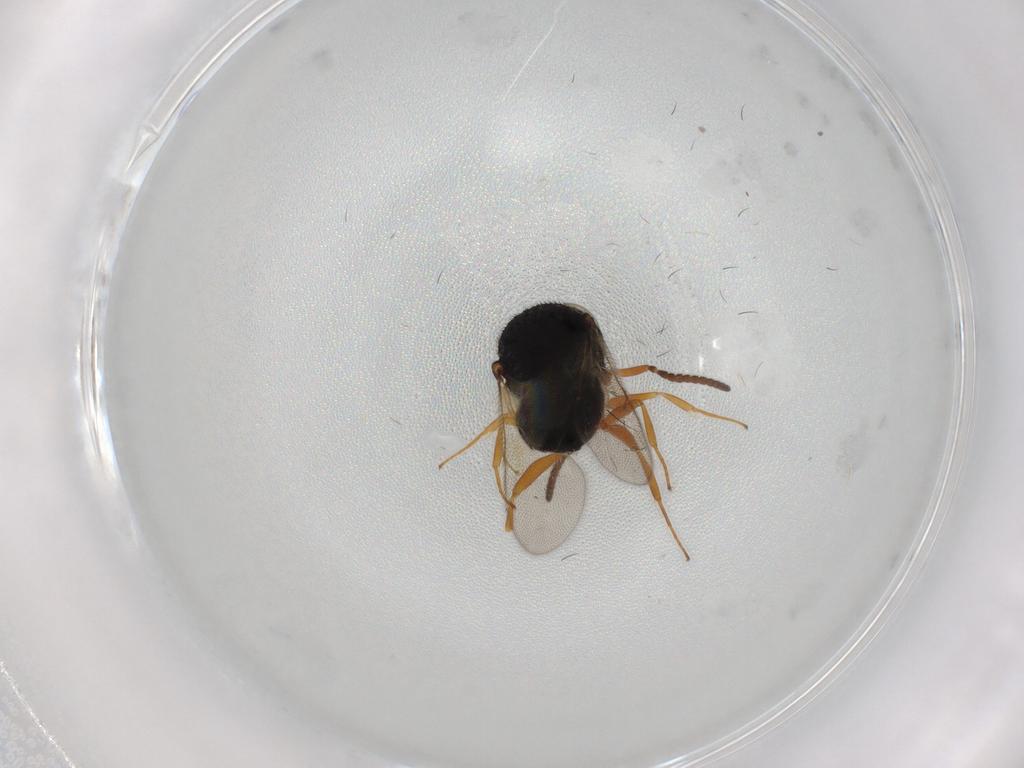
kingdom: Animalia
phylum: Arthropoda
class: Insecta
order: Hymenoptera
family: Scelionidae
